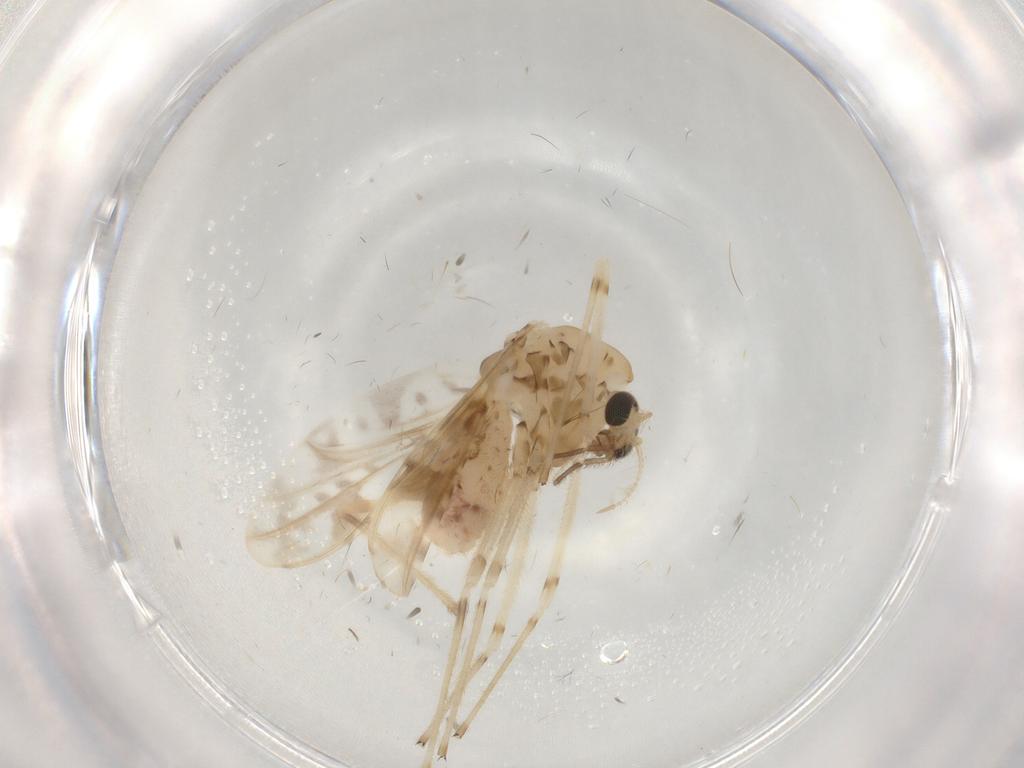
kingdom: Animalia
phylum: Arthropoda
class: Insecta
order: Diptera
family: Chironomidae
